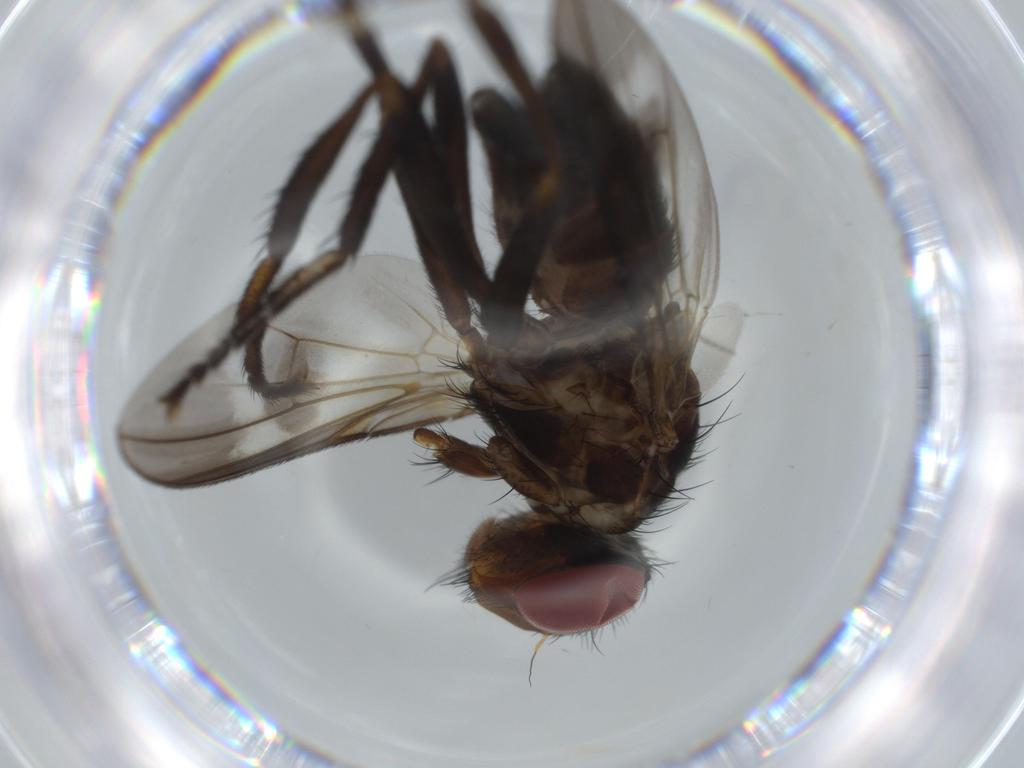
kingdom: Animalia
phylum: Arthropoda
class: Insecta
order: Diptera
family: Calliphoridae
